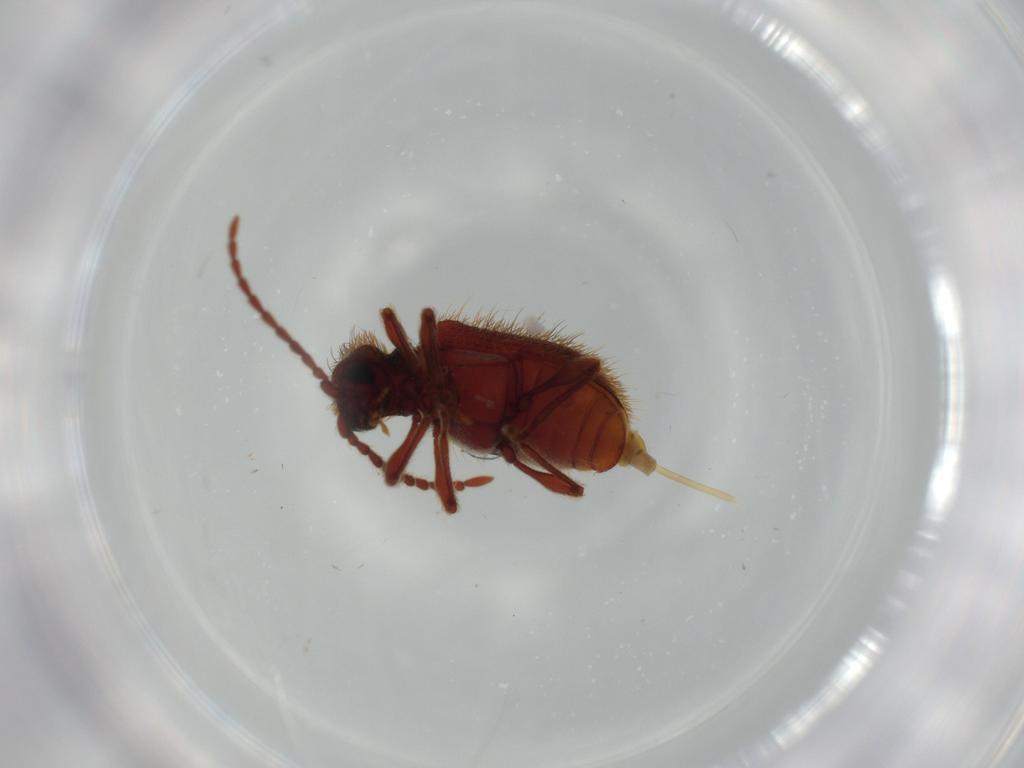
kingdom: Animalia
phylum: Arthropoda
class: Insecta
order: Coleoptera
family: Ptinidae
